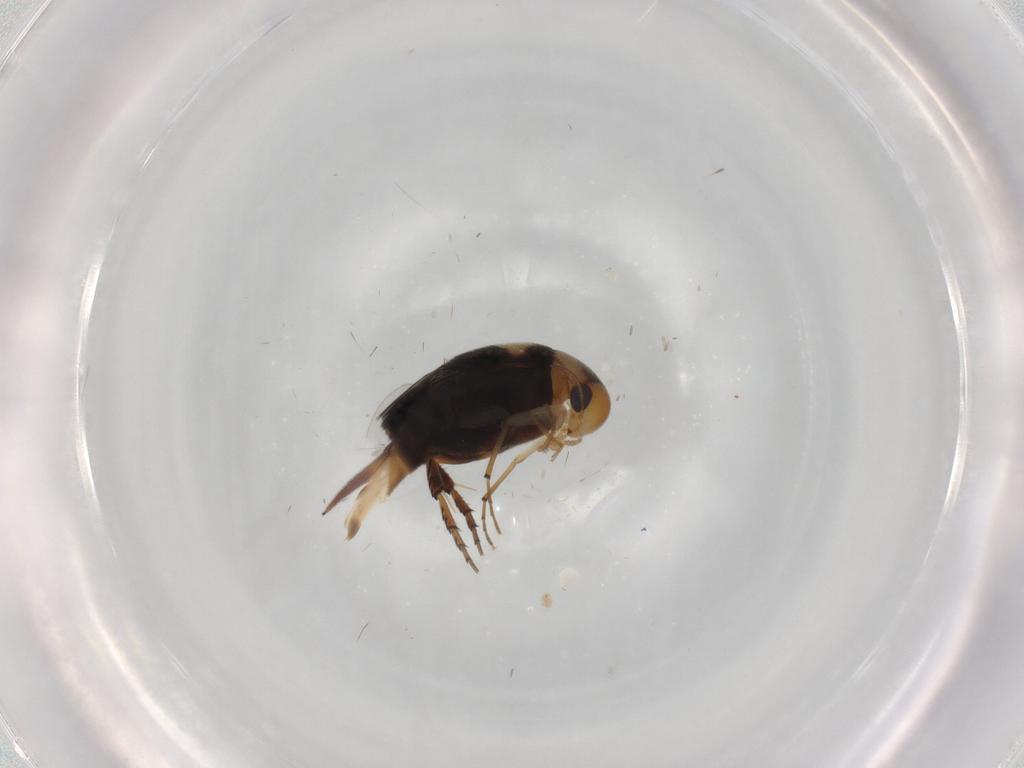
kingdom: Animalia
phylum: Arthropoda
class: Insecta
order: Coleoptera
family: Mordellidae
